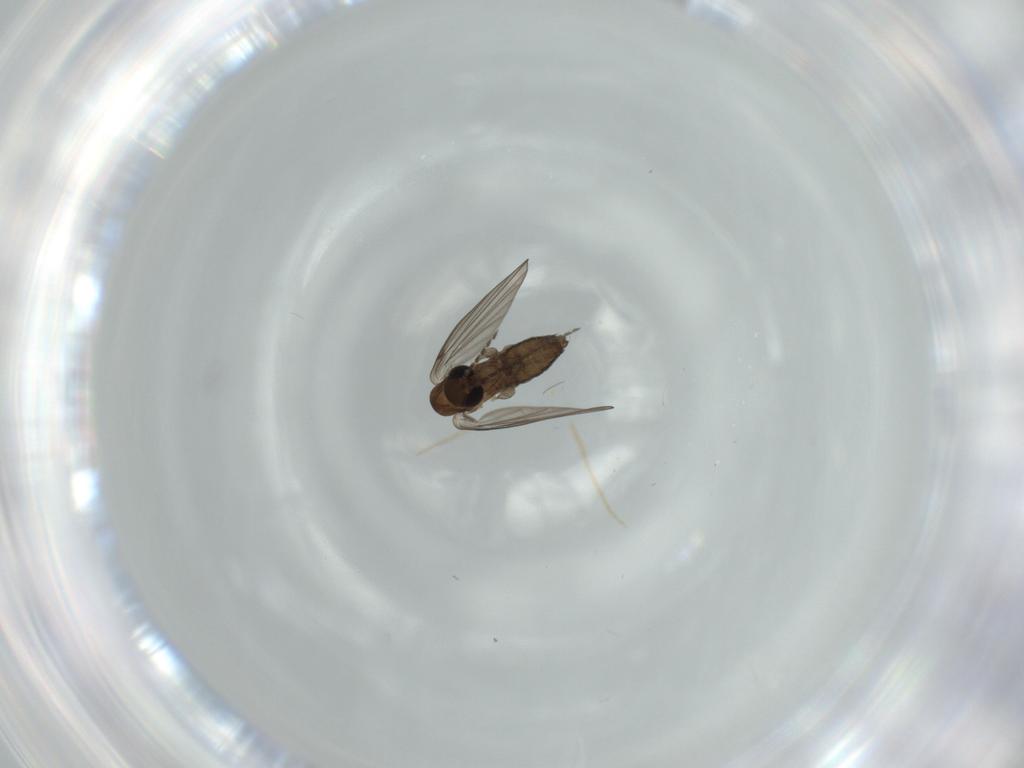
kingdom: Animalia
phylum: Arthropoda
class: Insecta
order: Diptera
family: Psychodidae
